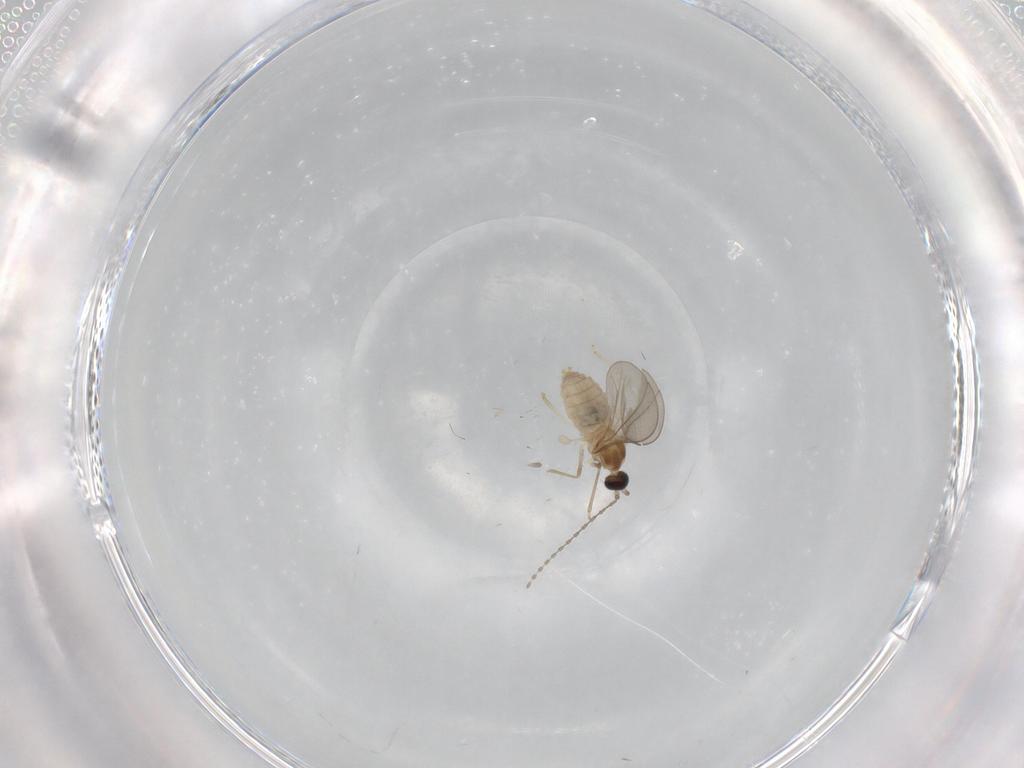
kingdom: Animalia
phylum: Arthropoda
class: Insecta
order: Diptera
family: Cecidomyiidae
